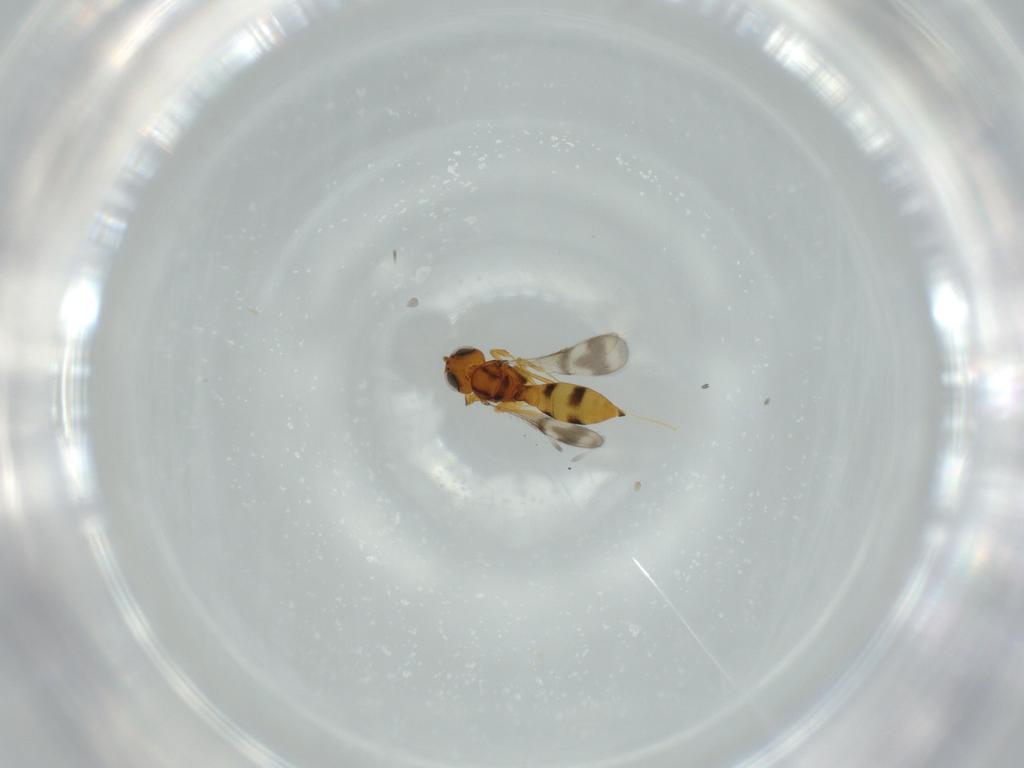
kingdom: Animalia
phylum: Arthropoda
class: Insecta
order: Hymenoptera
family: Scelionidae
